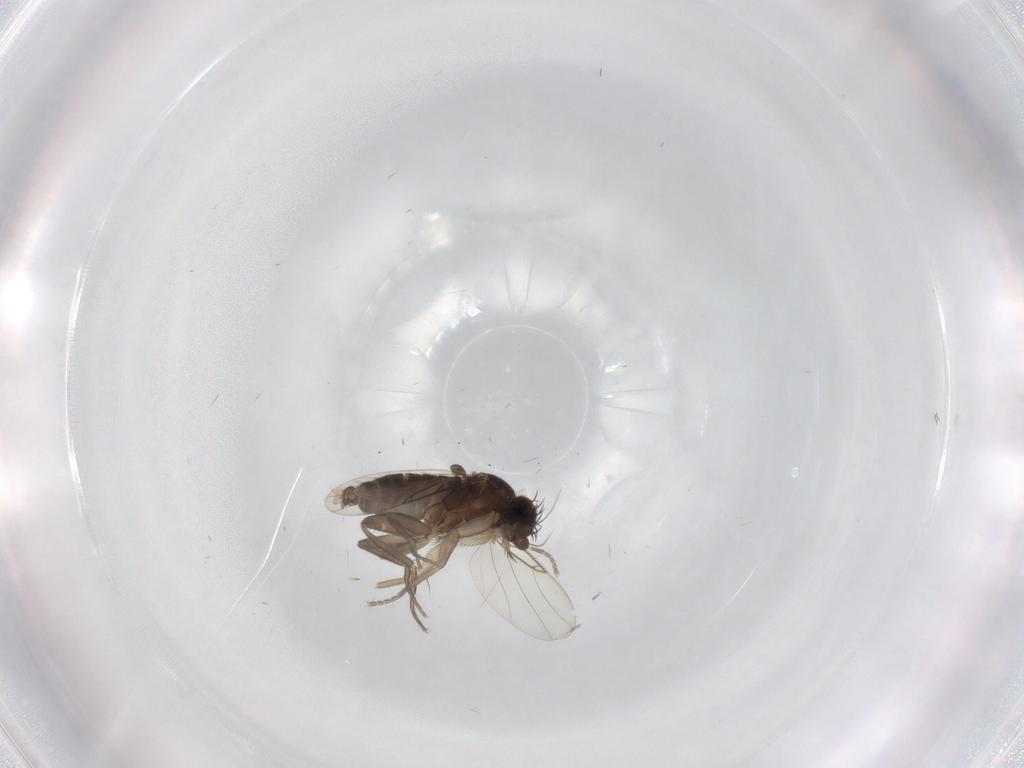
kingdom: Animalia
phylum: Arthropoda
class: Insecta
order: Diptera
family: Phoridae
